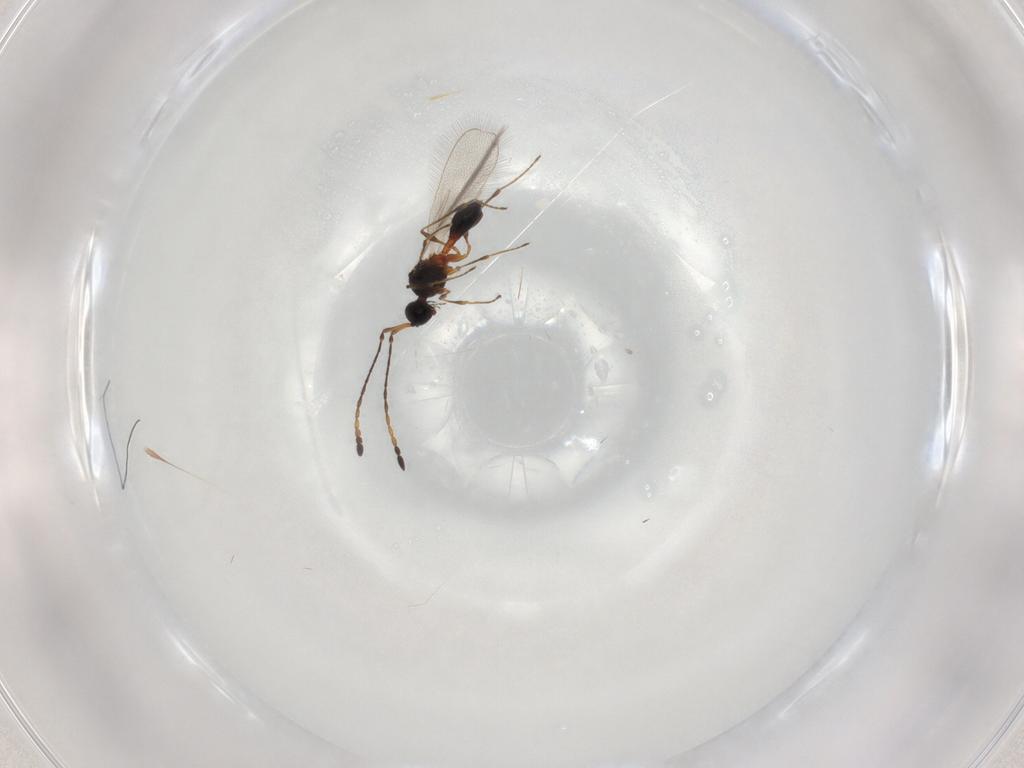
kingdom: Animalia
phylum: Arthropoda
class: Insecta
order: Hymenoptera
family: Diapriidae
